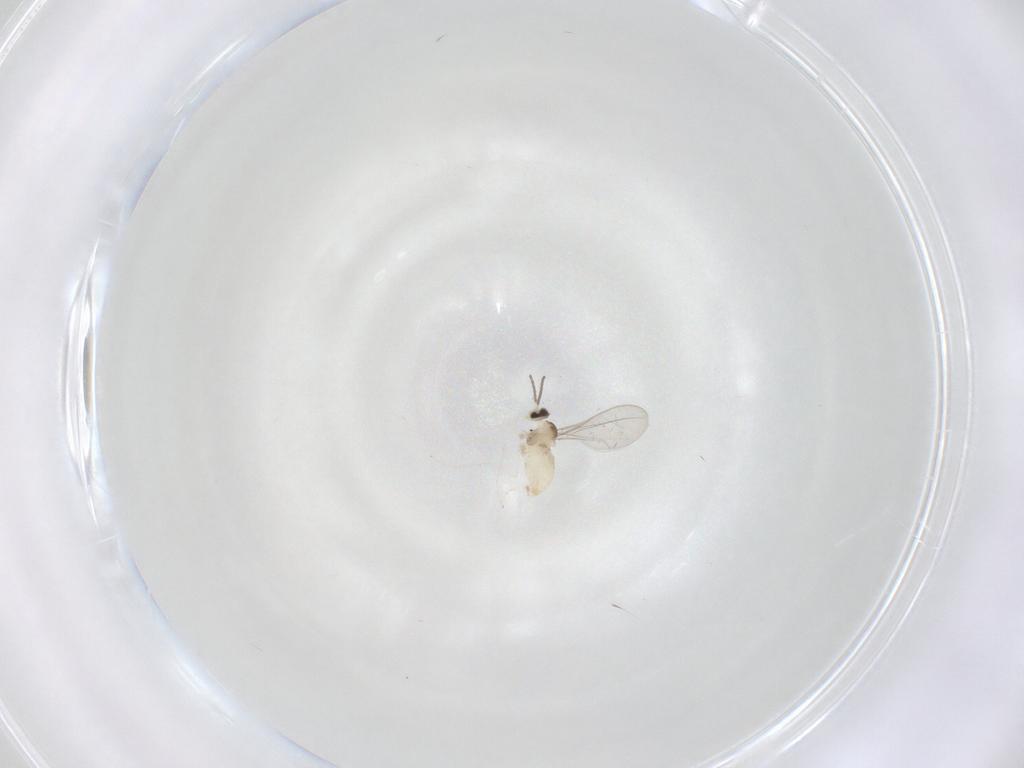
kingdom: Animalia
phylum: Arthropoda
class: Insecta
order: Diptera
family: Cecidomyiidae
